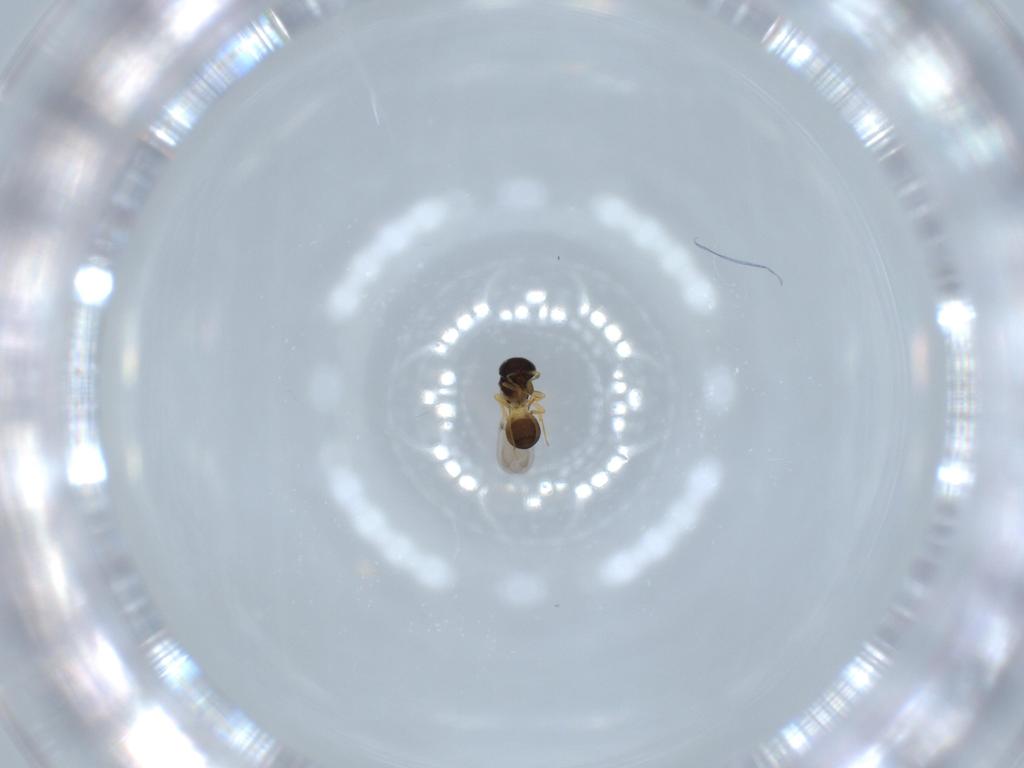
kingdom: Animalia
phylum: Arthropoda
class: Insecta
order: Hymenoptera
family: Scelionidae
